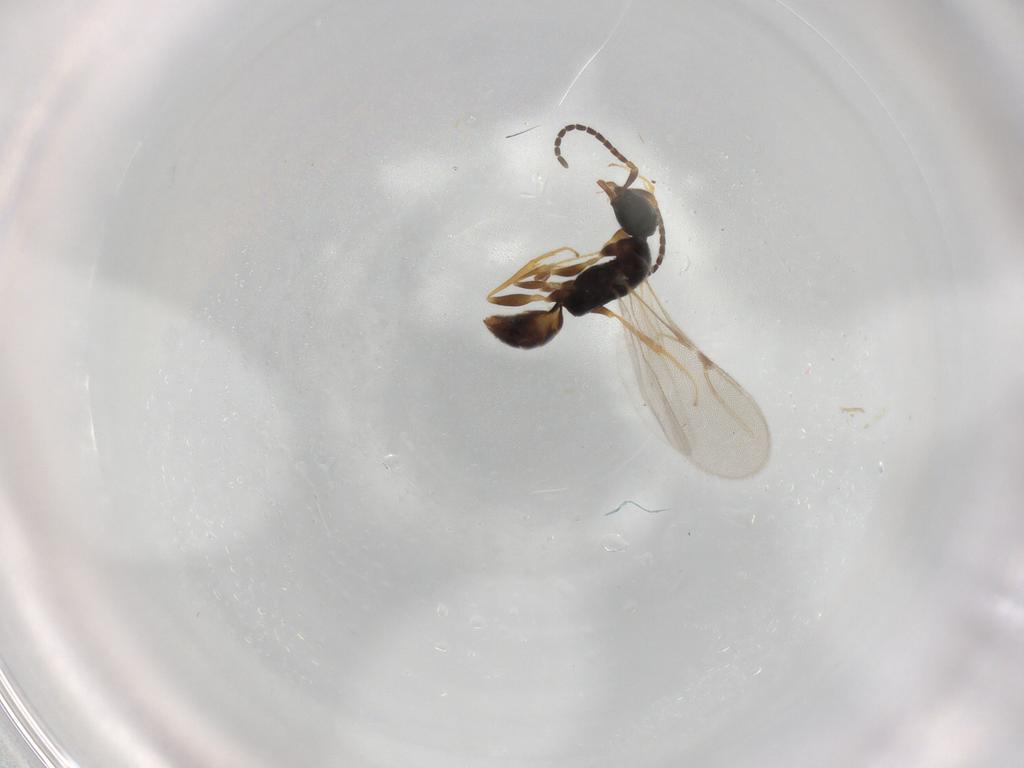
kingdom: Animalia
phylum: Arthropoda
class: Insecta
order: Hymenoptera
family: Bethylidae
